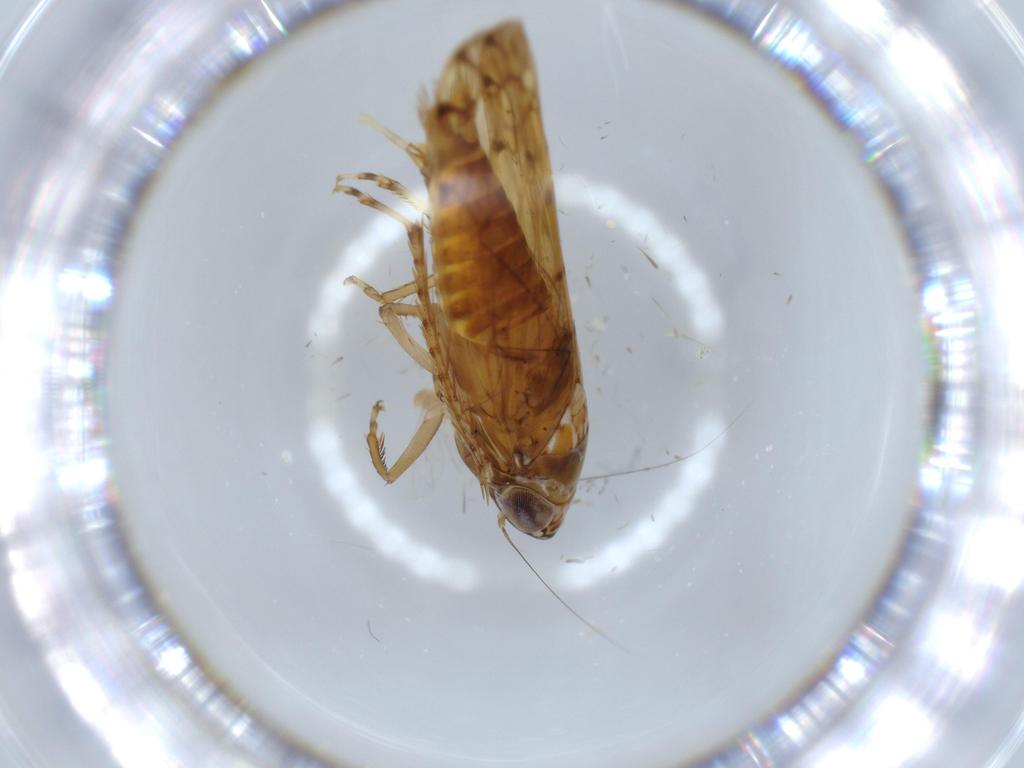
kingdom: Animalia
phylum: Arthropoda
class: Insecta
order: Hemiptera
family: Cicadellidae
